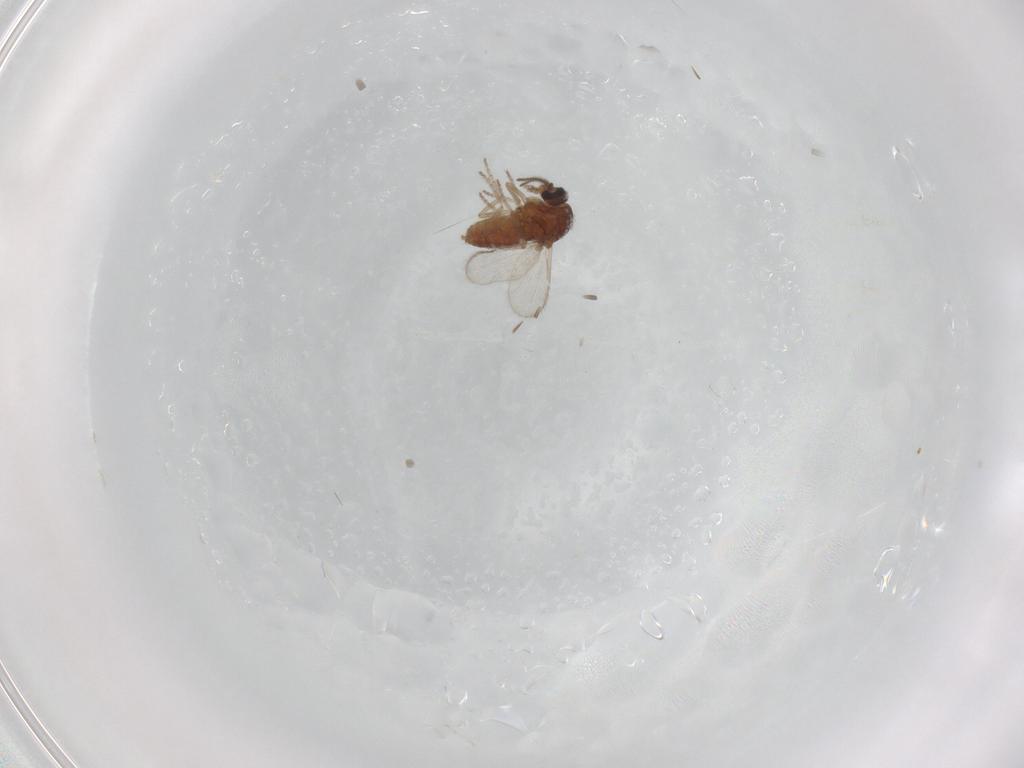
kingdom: Animalia
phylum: Arthropoda
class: Insecta
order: Diptera
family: Ceratopogonidae
